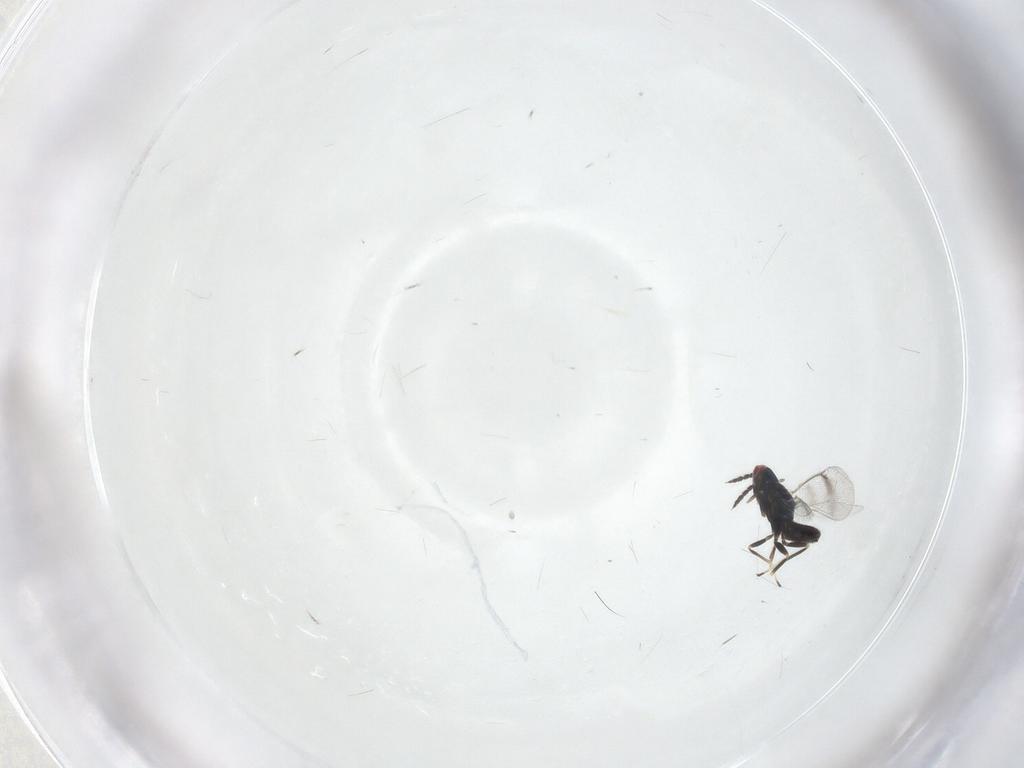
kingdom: Animalia
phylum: Arthropoda
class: Insecta
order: Hymenoptera
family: Eulophidae
